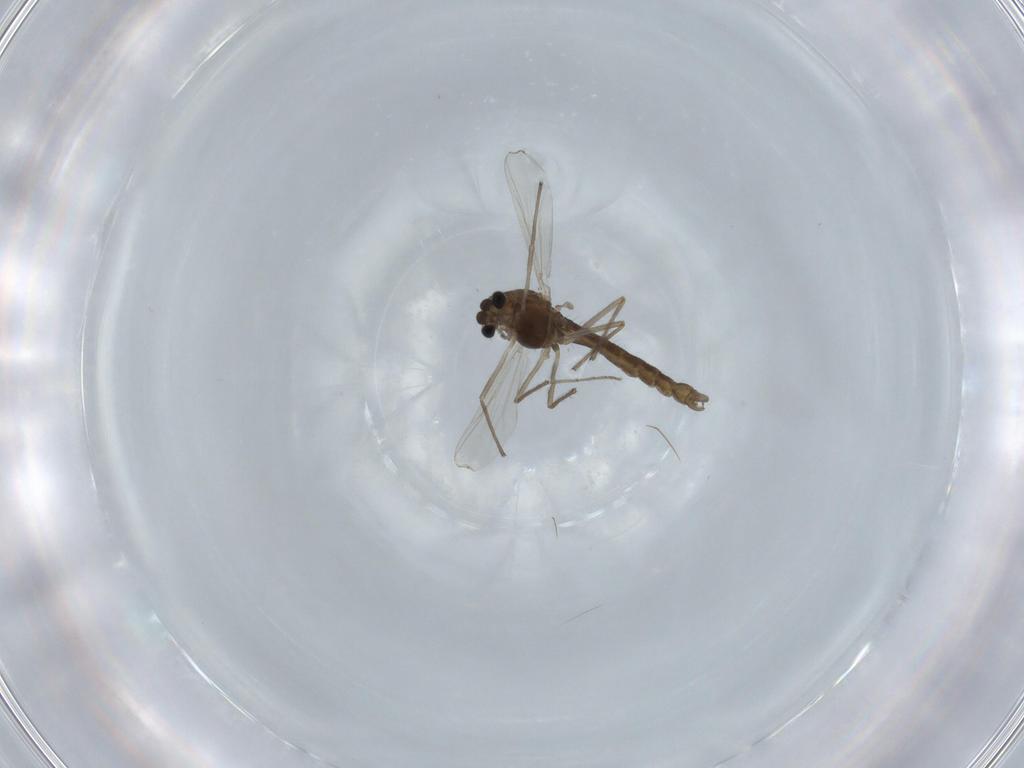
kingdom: Animalia
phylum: Arthropoda
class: Insecta
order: Diptera
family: Chironomidae
